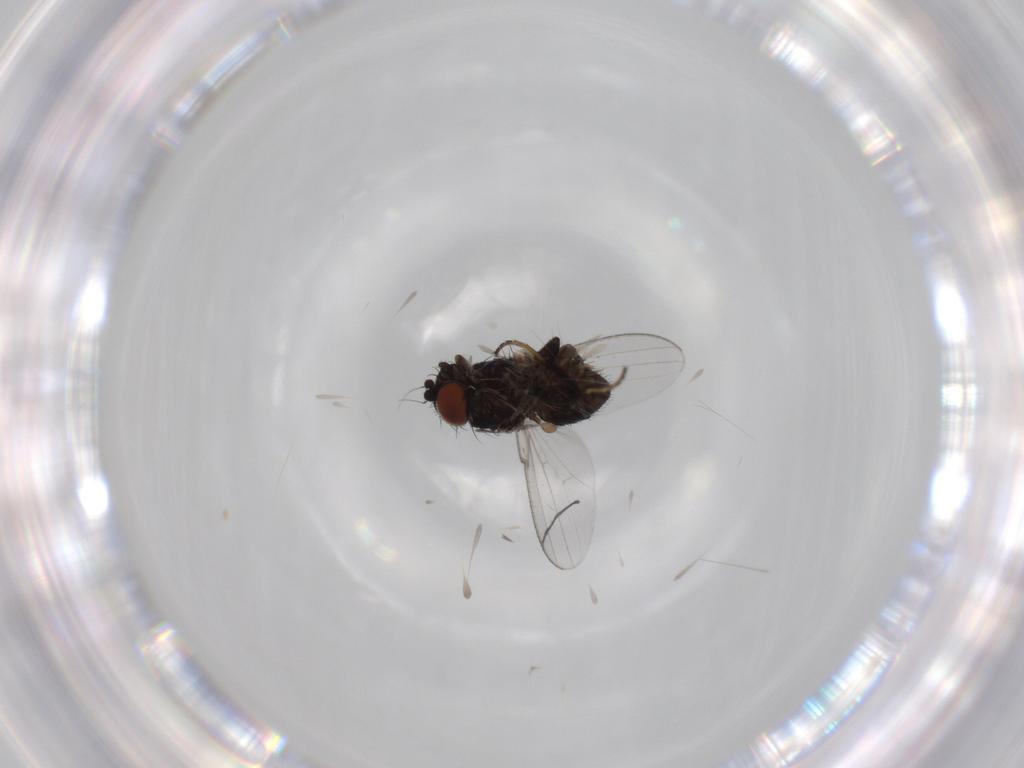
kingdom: Animalia
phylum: Arthropoda
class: Insecta
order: Diptera
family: Milichiidae
